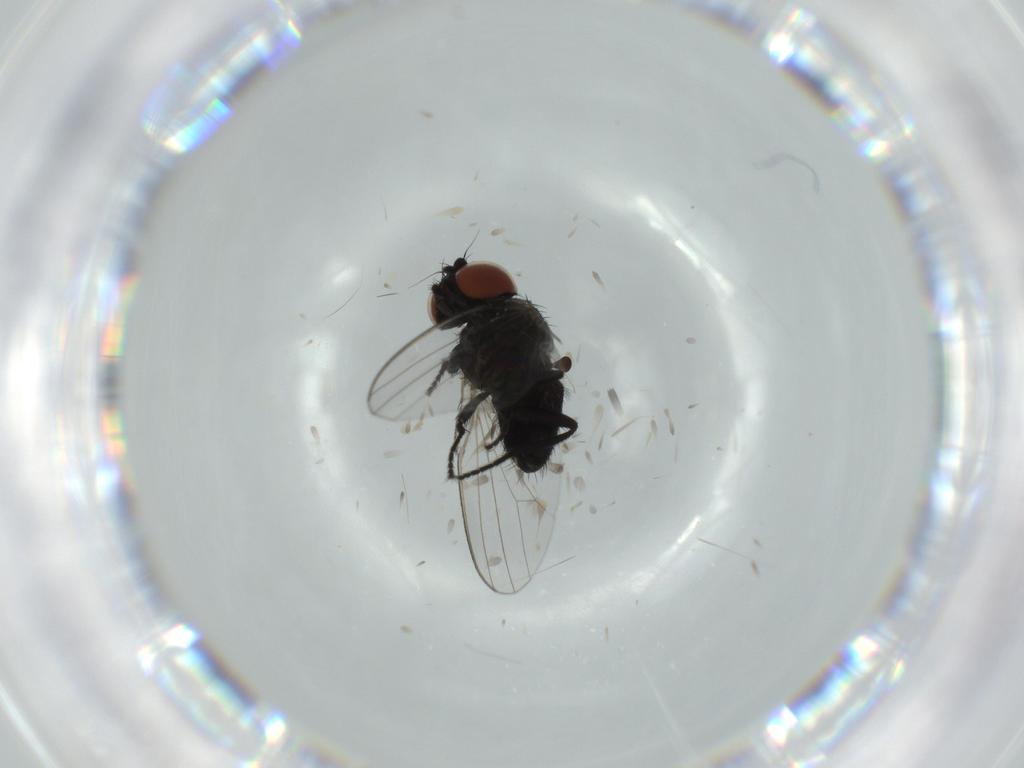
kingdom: Animalia
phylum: Arthropoda
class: Insecta
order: Diptera
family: Milichiidae
